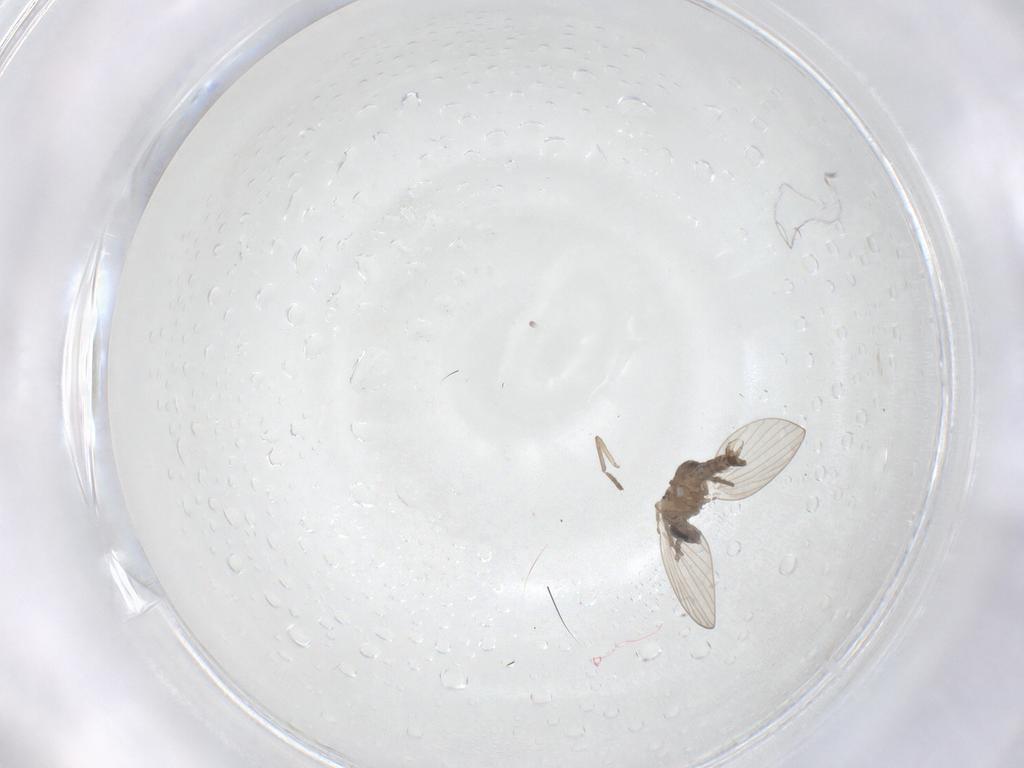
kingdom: Animalia
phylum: Arthropoda
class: Insecta
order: Diptera
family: Psychodidae
